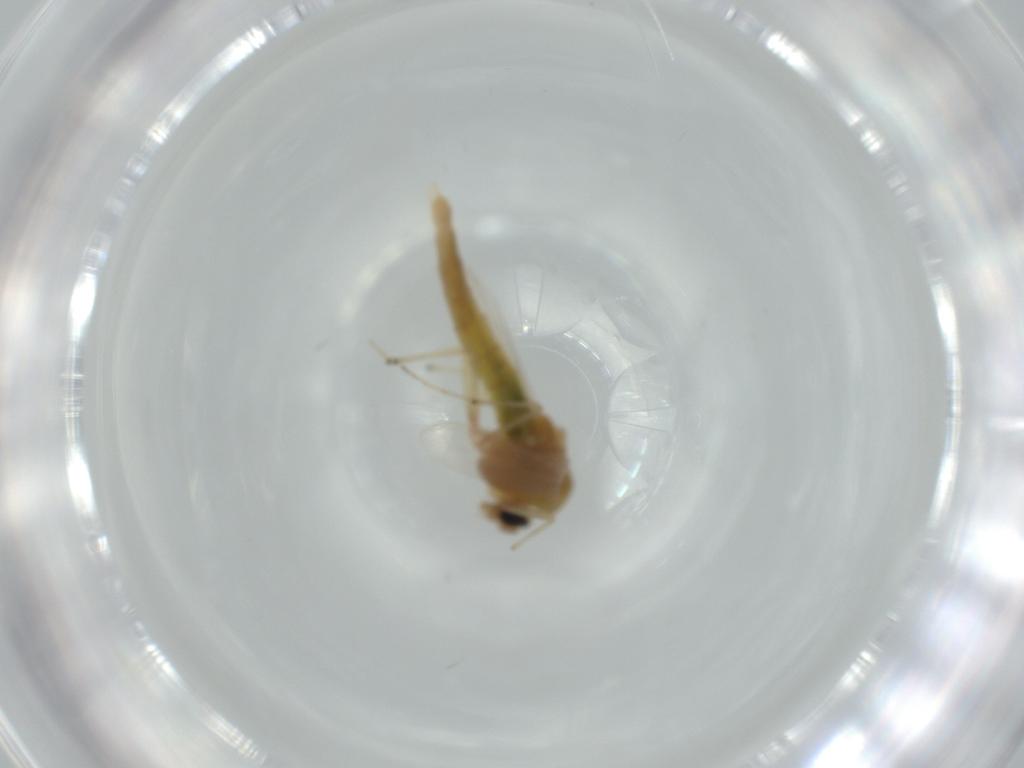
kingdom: Animalia
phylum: Arthropoda
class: Insecta
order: Diptera
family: Chironomidae
